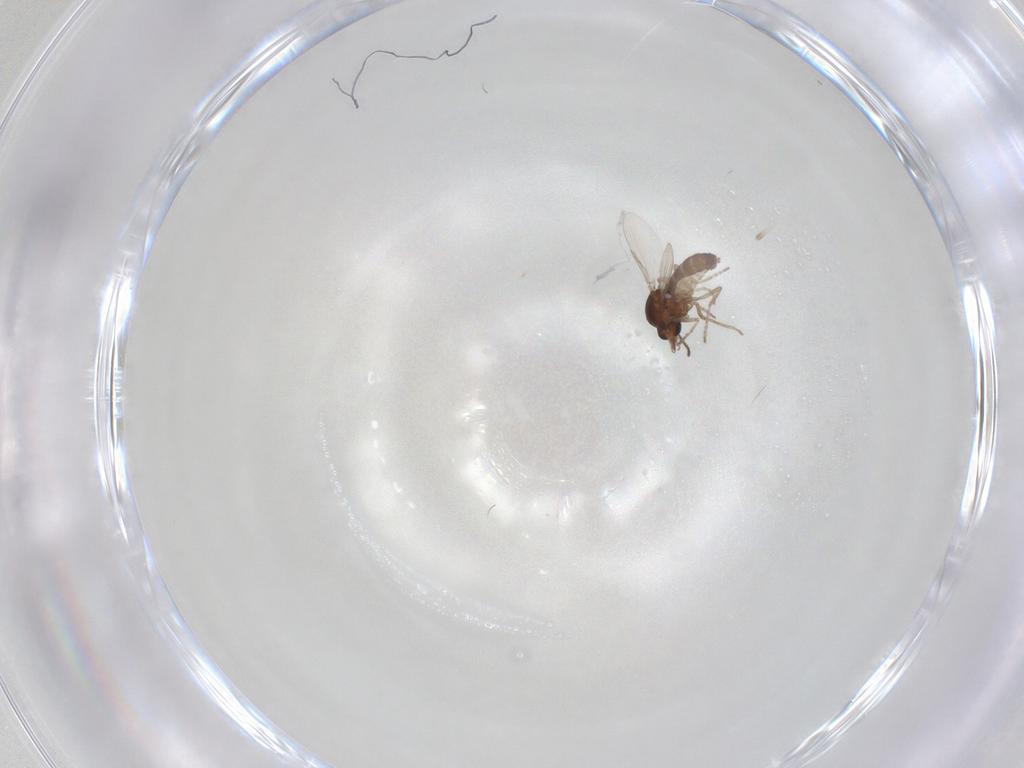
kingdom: Animalia
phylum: Arthropoda
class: Insecta
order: Diptera
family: Ceratopogonidae
